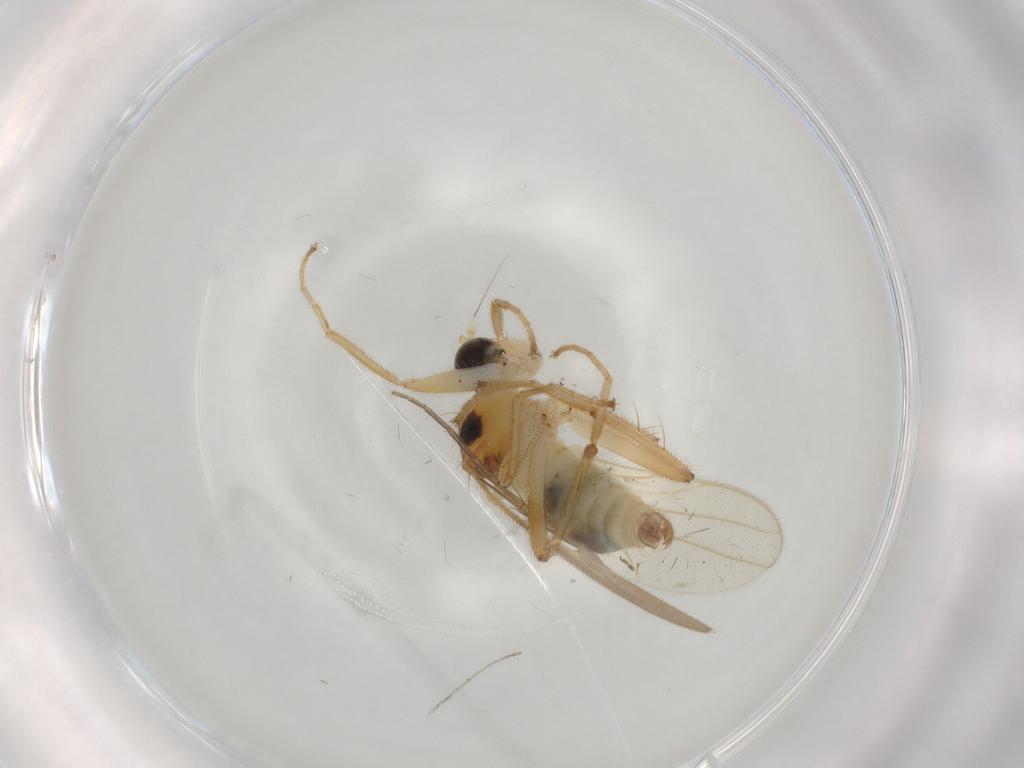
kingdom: Animalia
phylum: Arthropoda
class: Insecta
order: Diptera
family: Hybotidae
